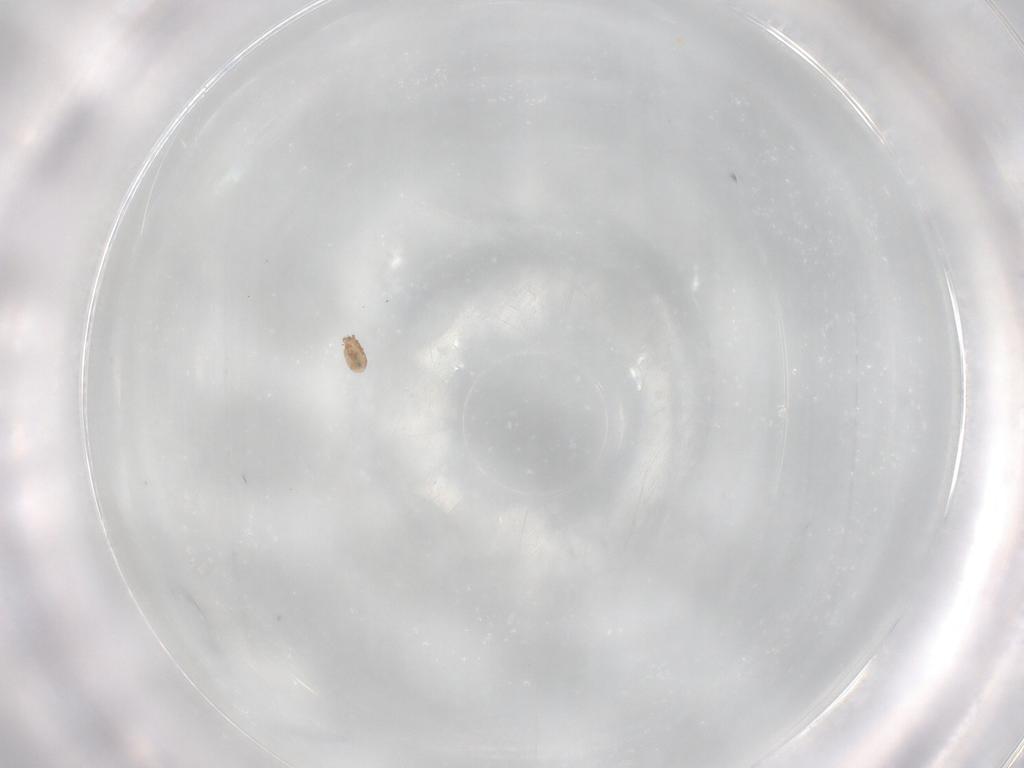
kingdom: Animalia
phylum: Arthropoda
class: Arachnida
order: Sarcoptiformes
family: Phenopelopidae
